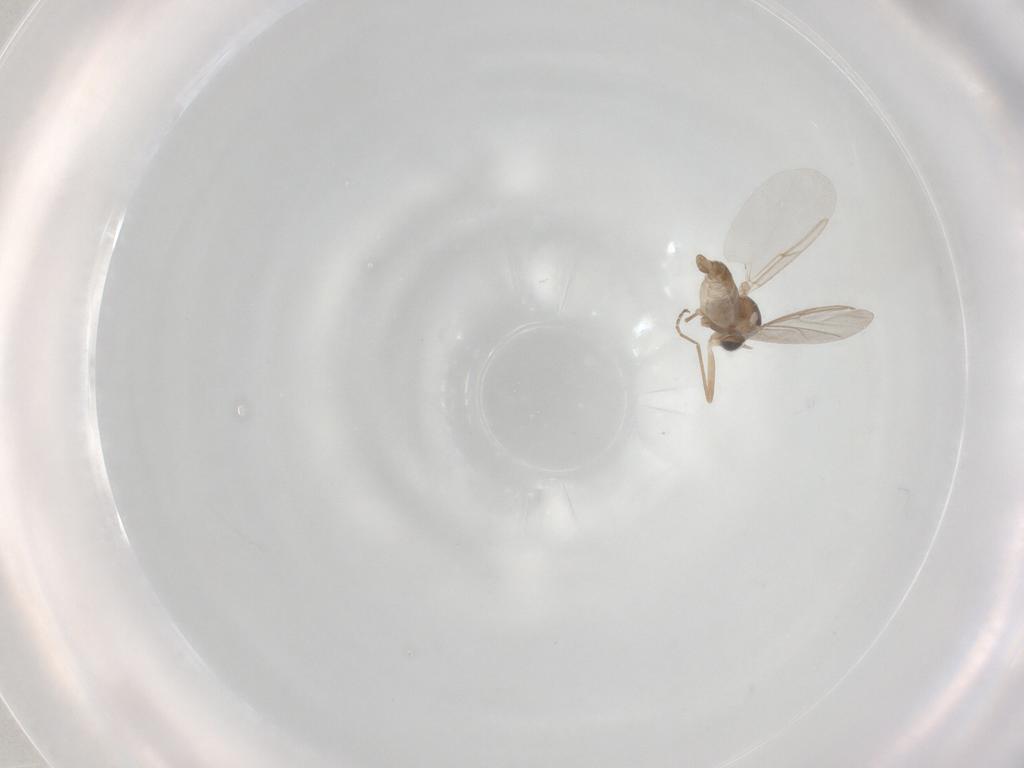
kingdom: Animalia
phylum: Arthropoda
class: Insecta
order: Diptera
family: Cecidomyiidae
